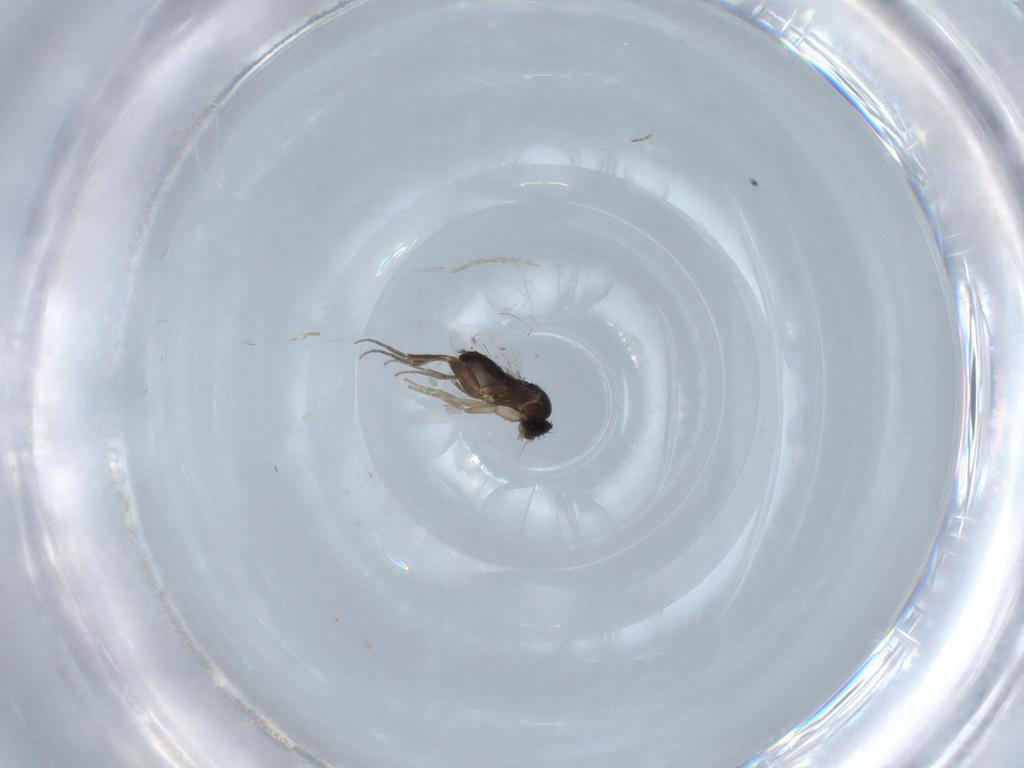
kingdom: Animalia
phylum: Arthropoda
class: Insecta
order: Diptera
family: Chironomidae
